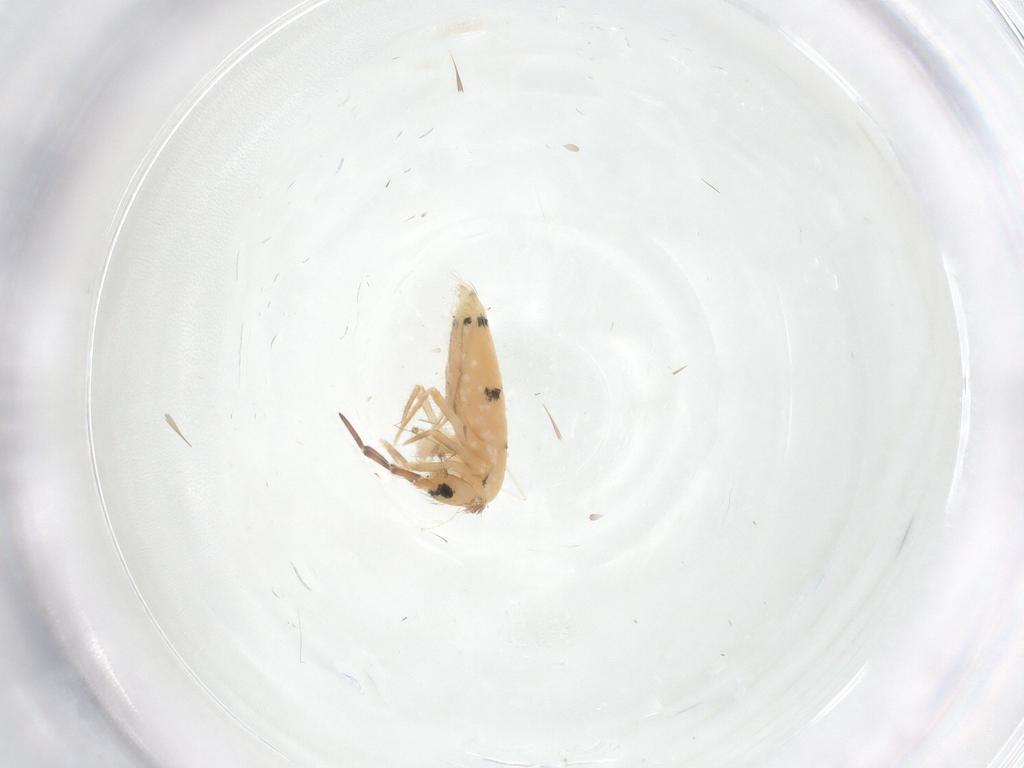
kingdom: Animalia
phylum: Arthropoda
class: Collembola
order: Entomobryomorpha
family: Entomobryidae
